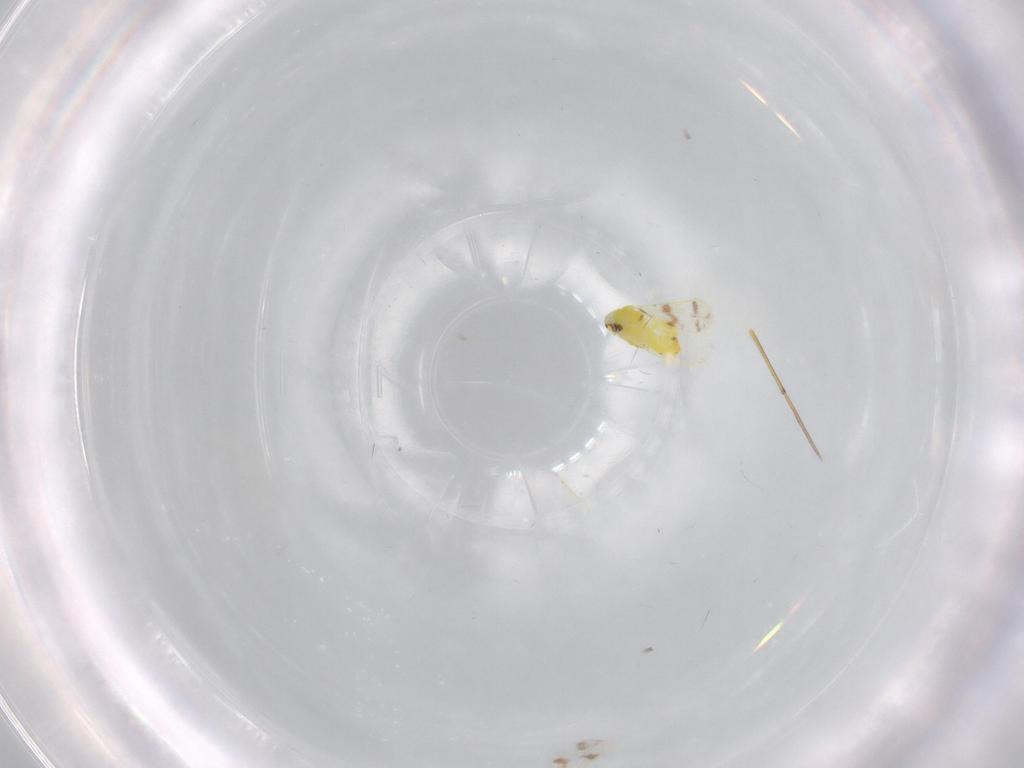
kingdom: Animalia
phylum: Arthropoda
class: Insecta
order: Hemiptera
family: Aleyrodidae
